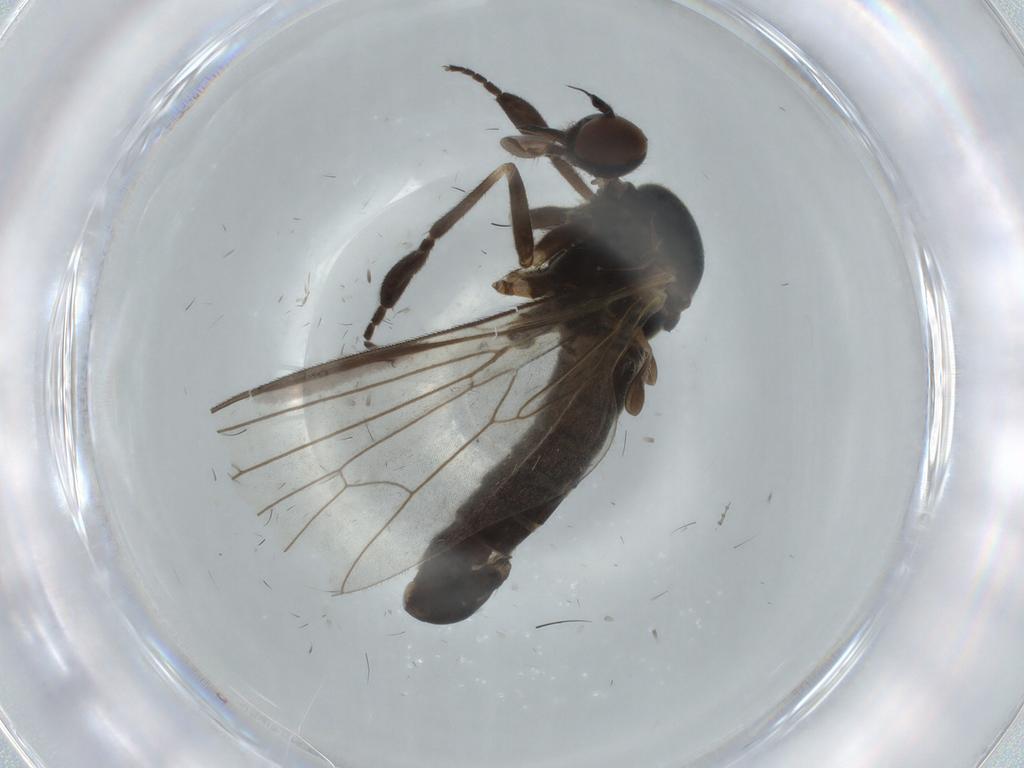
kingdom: Animalia
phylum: Arthropoda
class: Insecta
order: Diptera
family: Empididae
